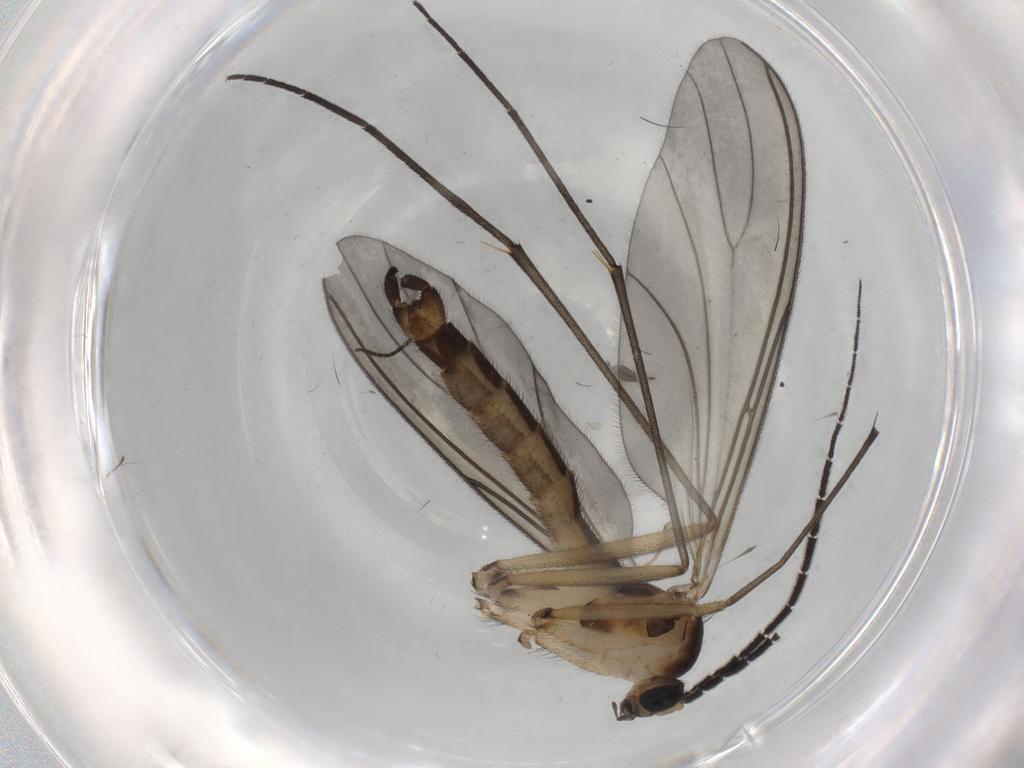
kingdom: Animalia
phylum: Arthropoda
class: Insecta
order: Diptera
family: Sciaridae
